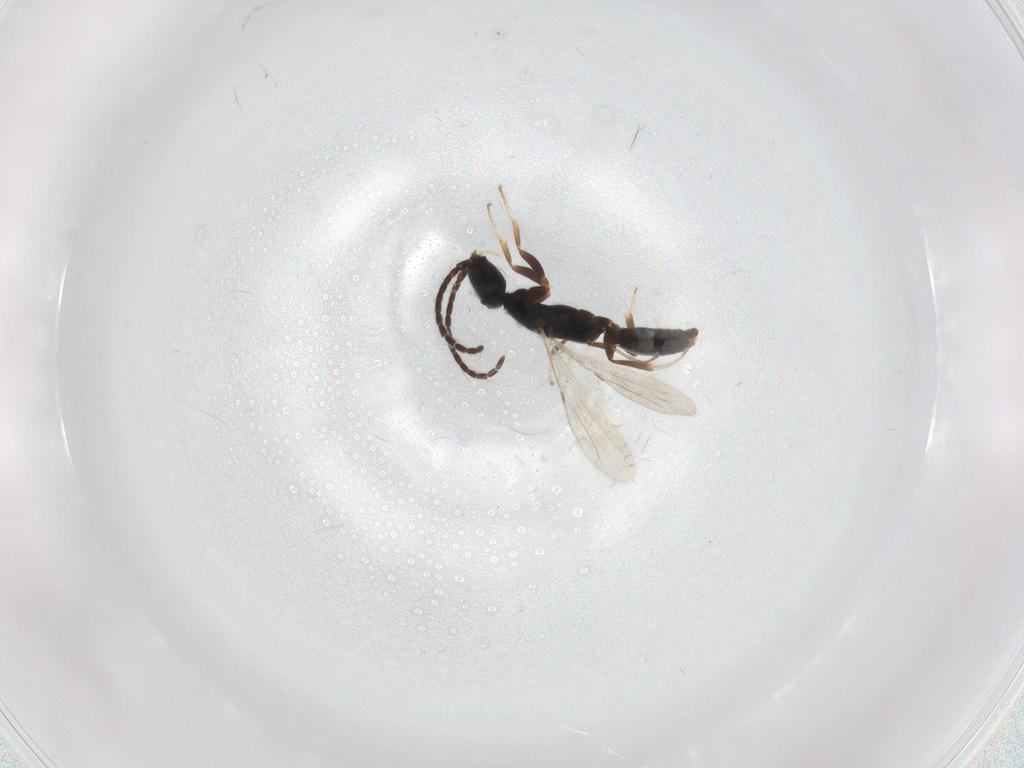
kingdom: Animalia
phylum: Arthropoda
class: Insecta
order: Hymenoptera
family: Bethylidae
